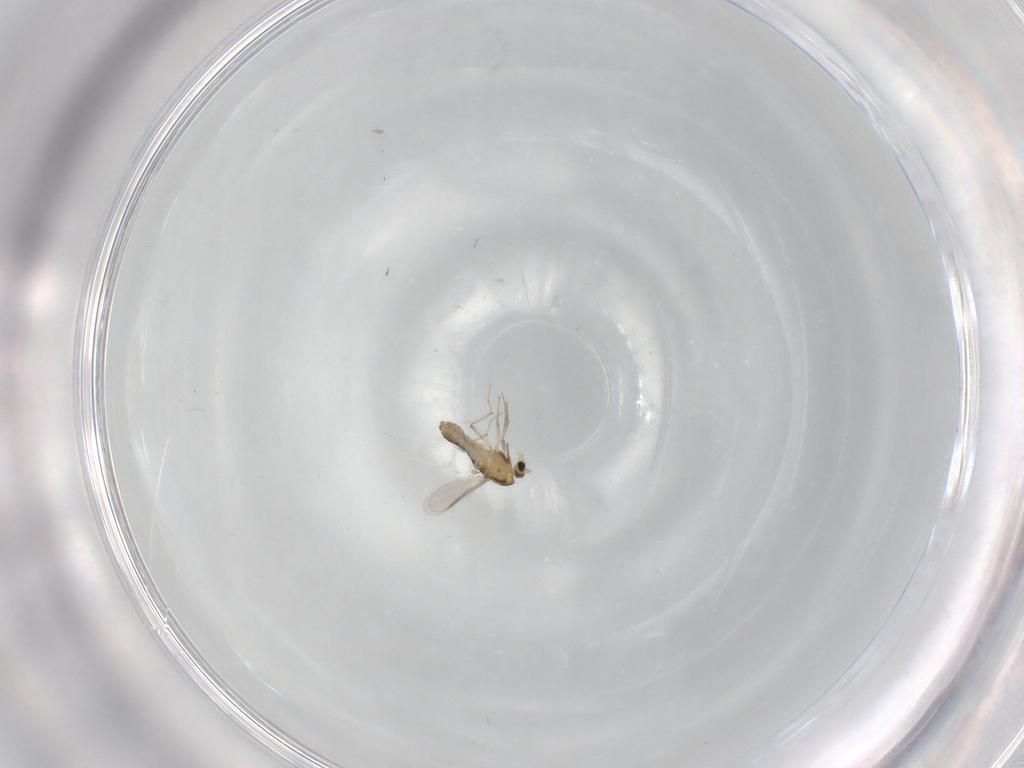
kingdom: Animalia
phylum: Arthropoda
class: Insecta
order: Diptera
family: Chironomidae
